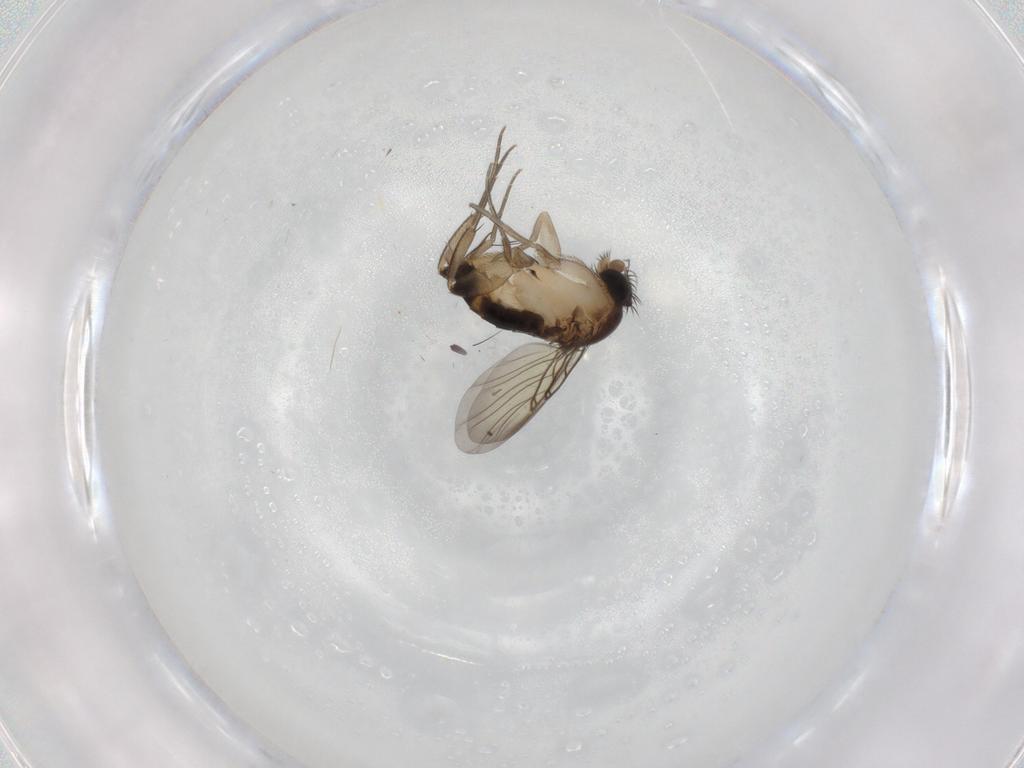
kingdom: Animalia
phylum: Arthropoda
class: Insecta
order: Diptera
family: Phoridae
